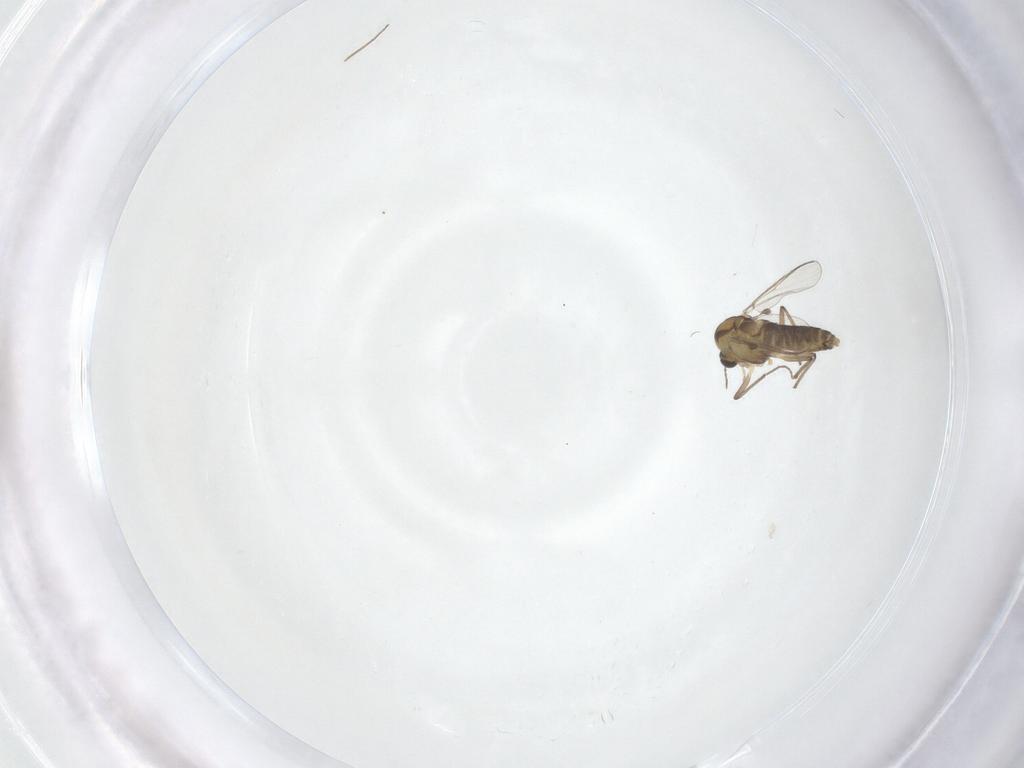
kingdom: Animalia
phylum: Arthropoda
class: Insecta
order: Diptera
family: Chironomidae
